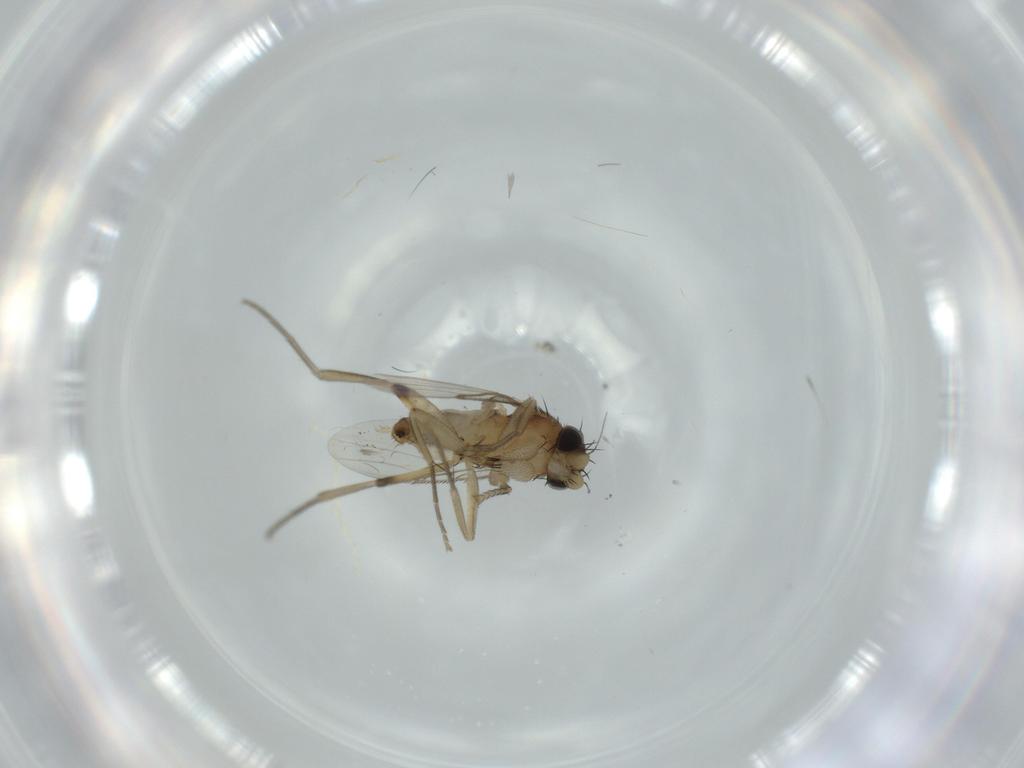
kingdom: Animalia
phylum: Arthropoda
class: Insecta
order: Diptera
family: Phoridae
